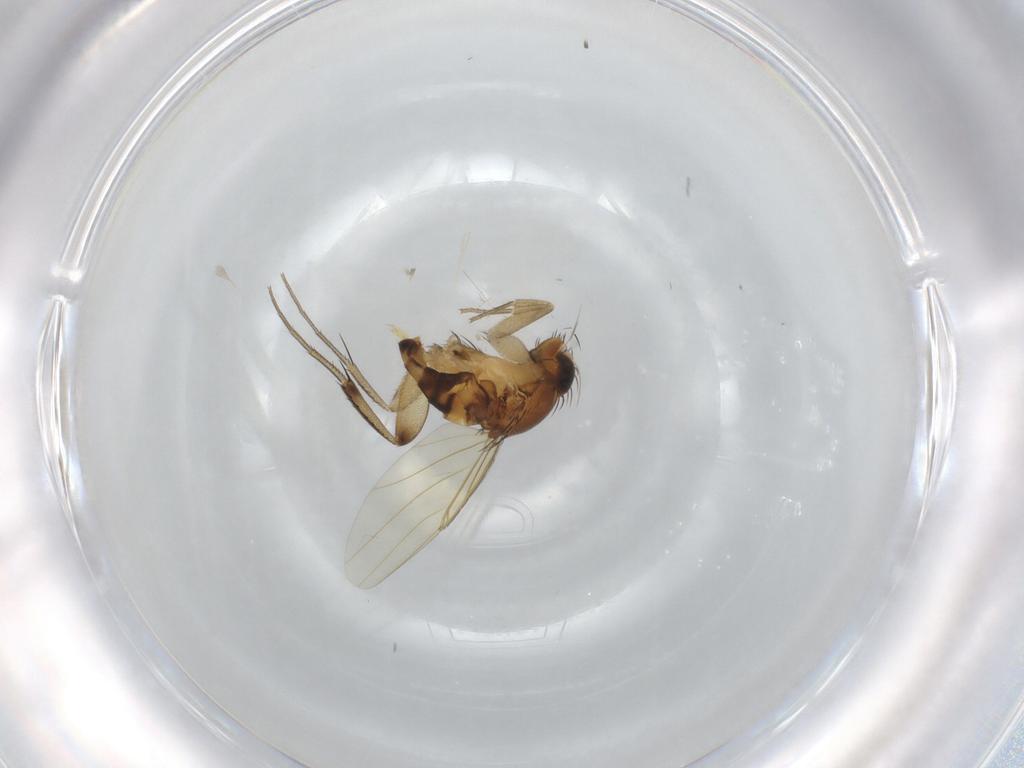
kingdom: Animalia
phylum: Arthropoda
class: Insecta
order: Diptera
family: Phoridae
